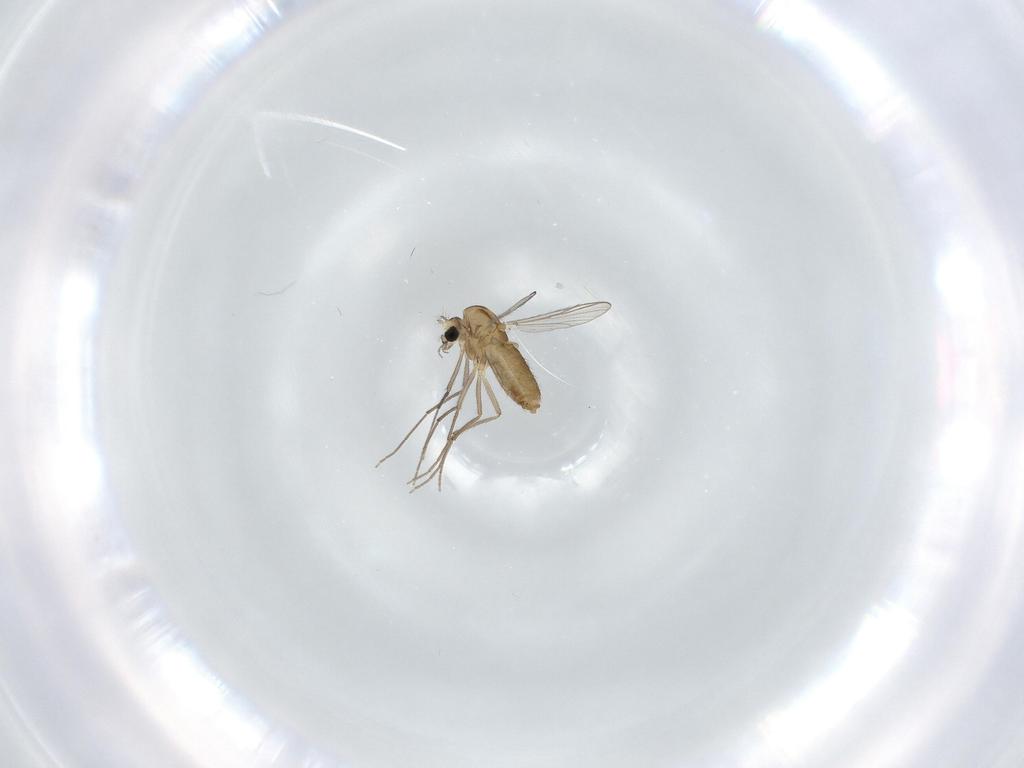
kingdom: Animalia
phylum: Arthropoda
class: Insecta
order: Diptera
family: Chironomidae
